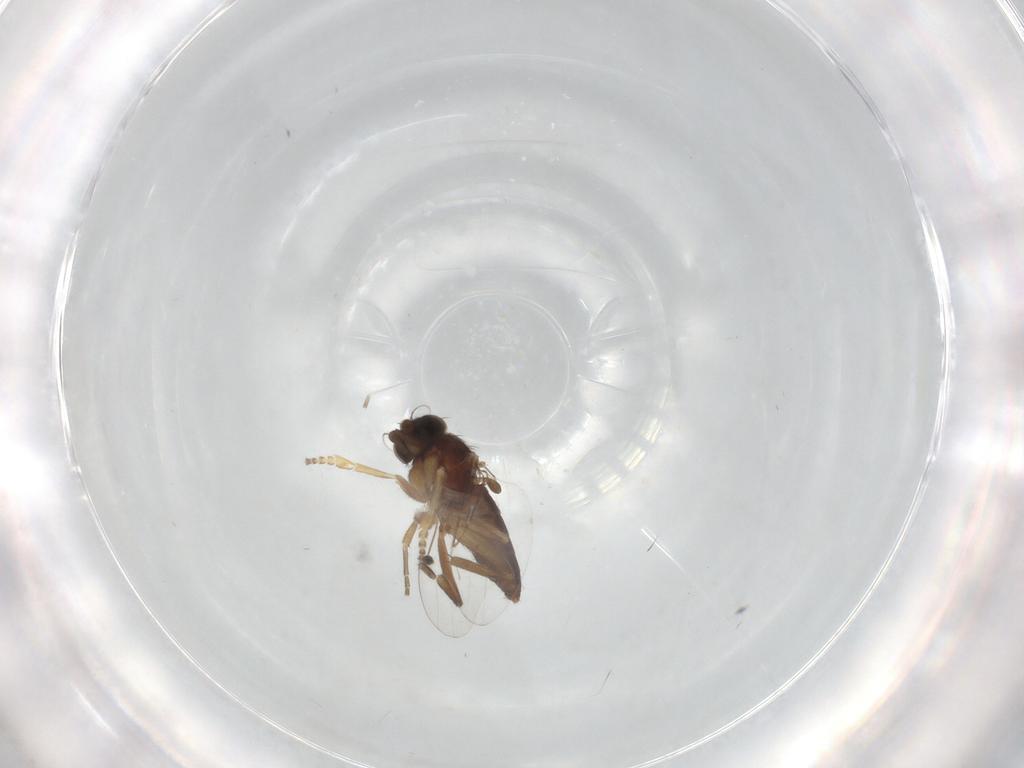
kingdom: Animalia
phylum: Arthropoda
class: Insecta
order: Diptera
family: Phoridae
